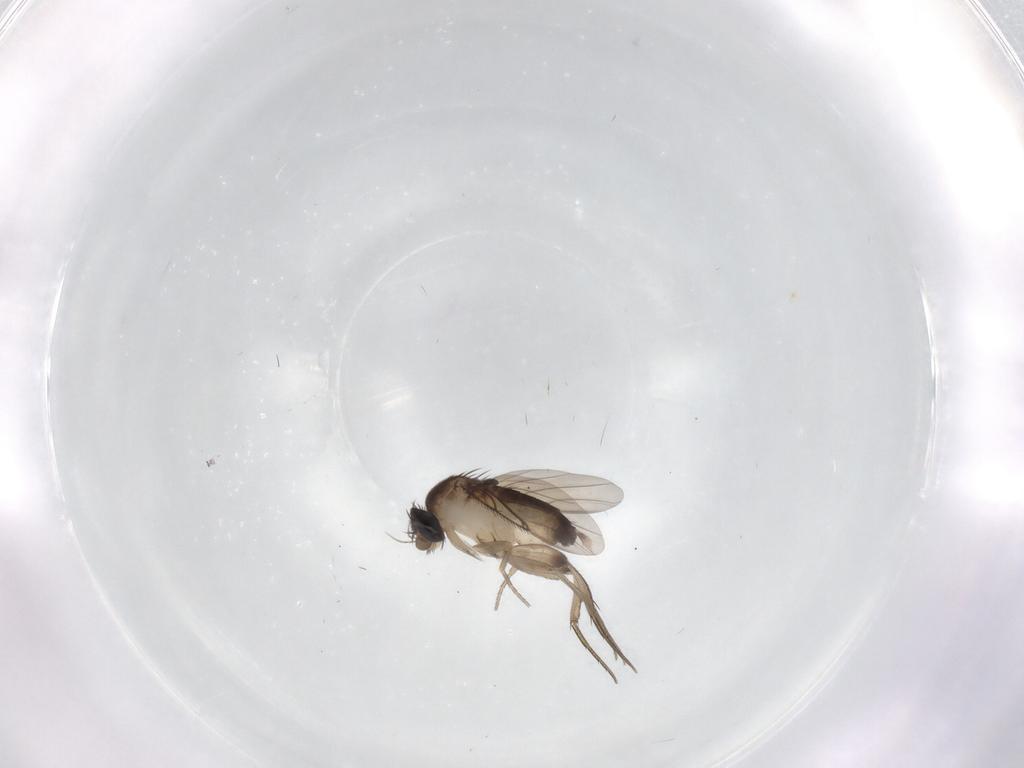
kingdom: Animalia
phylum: Arthropoda
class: Insecta
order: Diptera
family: Phoridae
